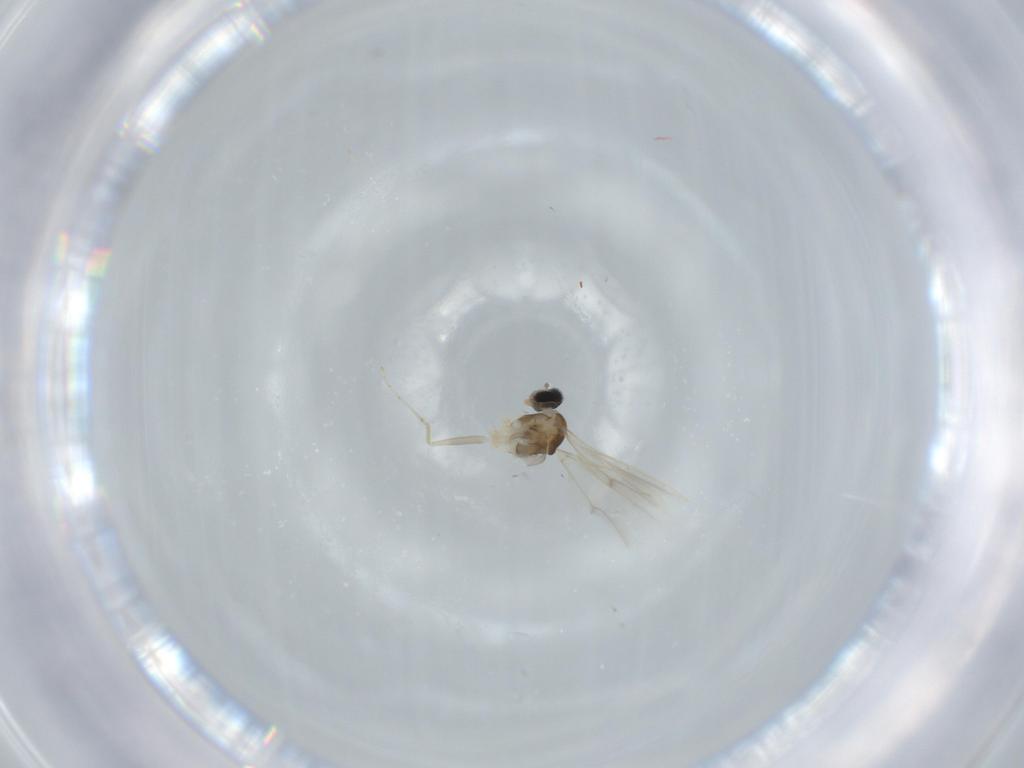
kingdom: Animalia
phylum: Arthropoda
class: Insecta
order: Diptera
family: Cecidomyiidae
